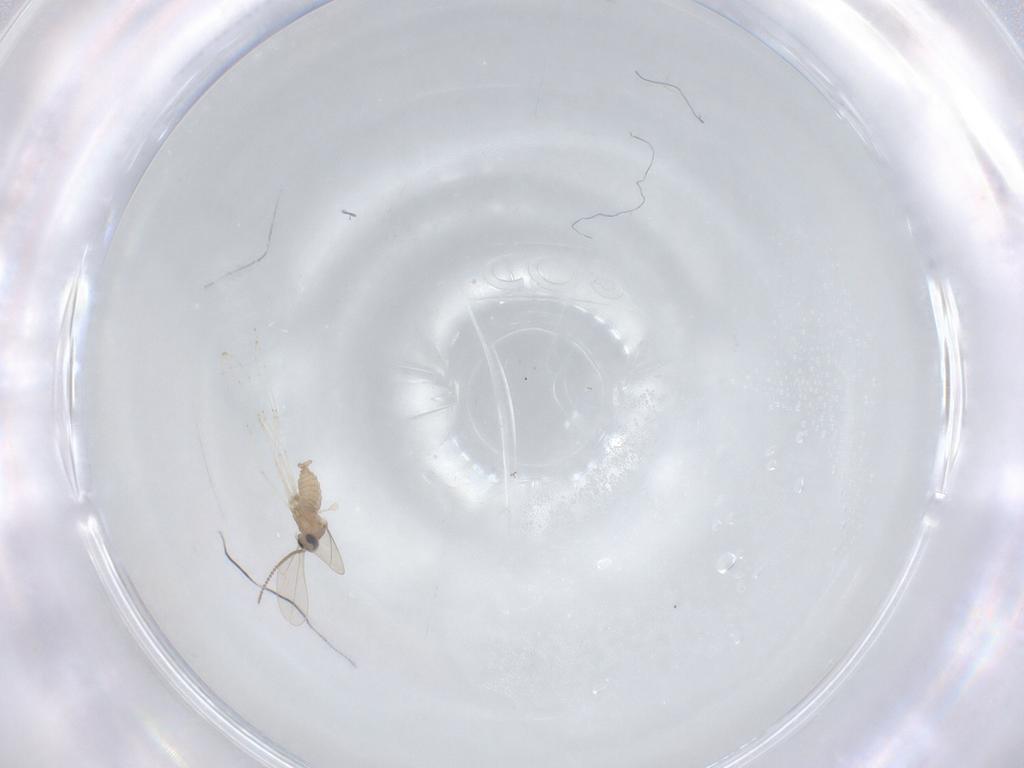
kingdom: Animalia
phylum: Arthropoda
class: Insecta
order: Diptera
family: Cecidomyiidae
